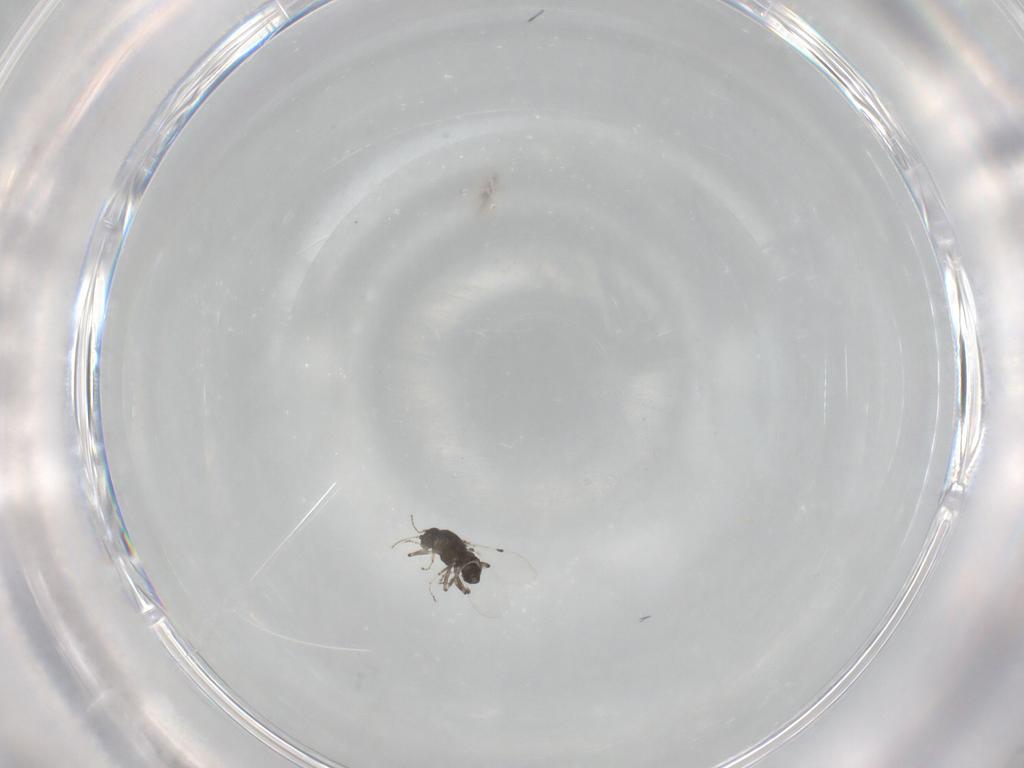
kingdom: Animalia
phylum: Arthropoda
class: Insecta
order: Diptera
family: Ceratopogonidae
